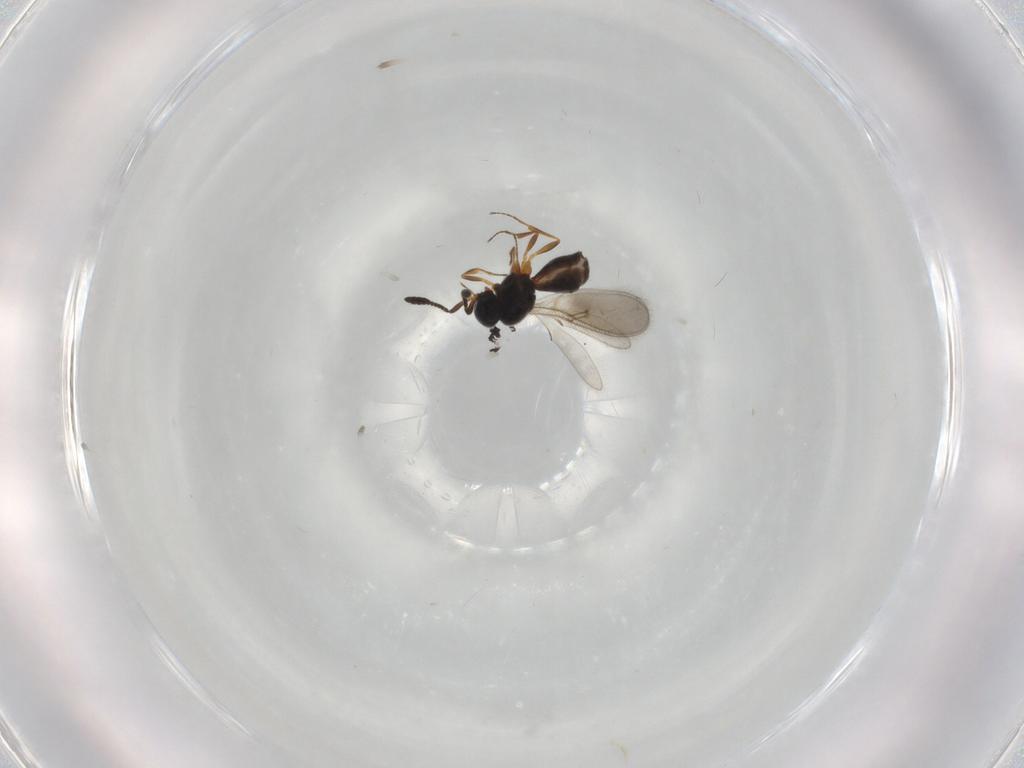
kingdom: Animalia
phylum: Arthropoda
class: Insecta
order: Hymenoptera
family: Scelionidae
